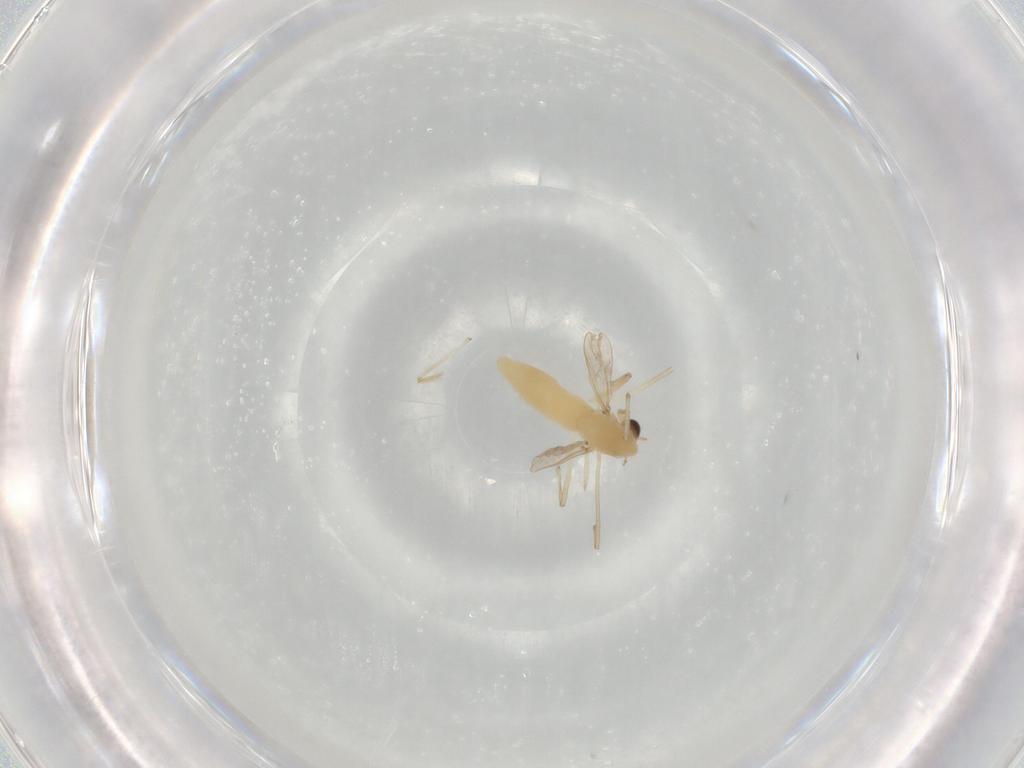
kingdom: Animalia
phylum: Arthropoda
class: Insecta
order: Diptera
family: Chironomidae
